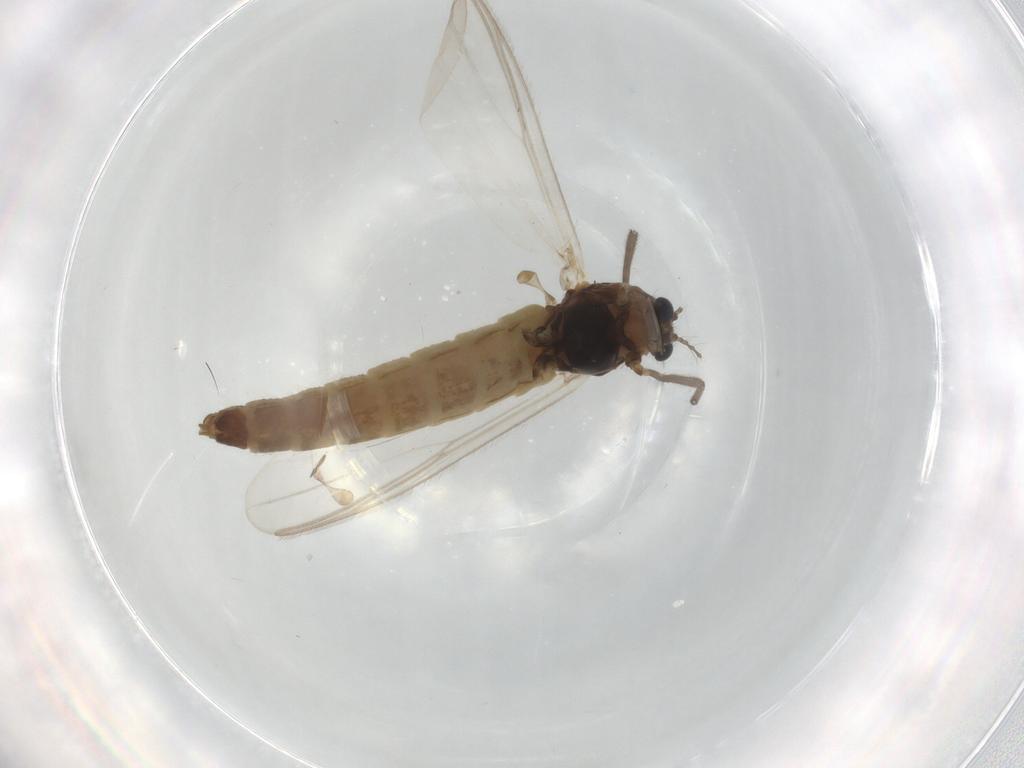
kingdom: Animalia
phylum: Arthropoda
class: Insecta
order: Diptera
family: Chironomidae
